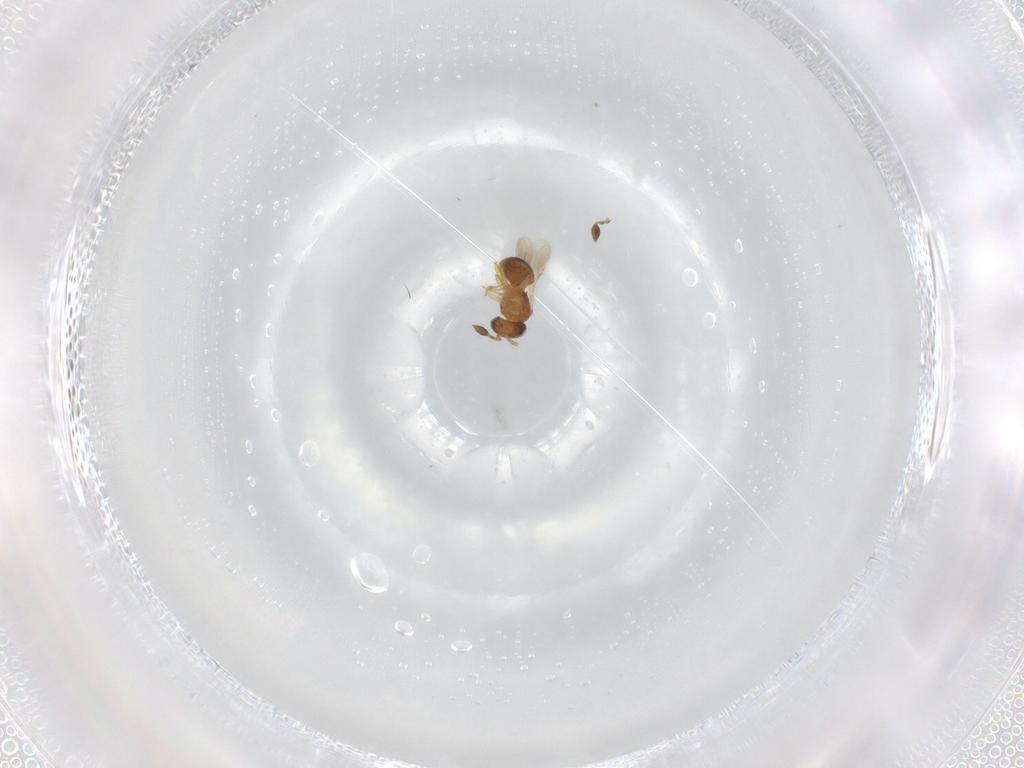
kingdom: Animalia
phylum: Arthropoda
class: Insecta
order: Hymenoptera
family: Scelionidae
